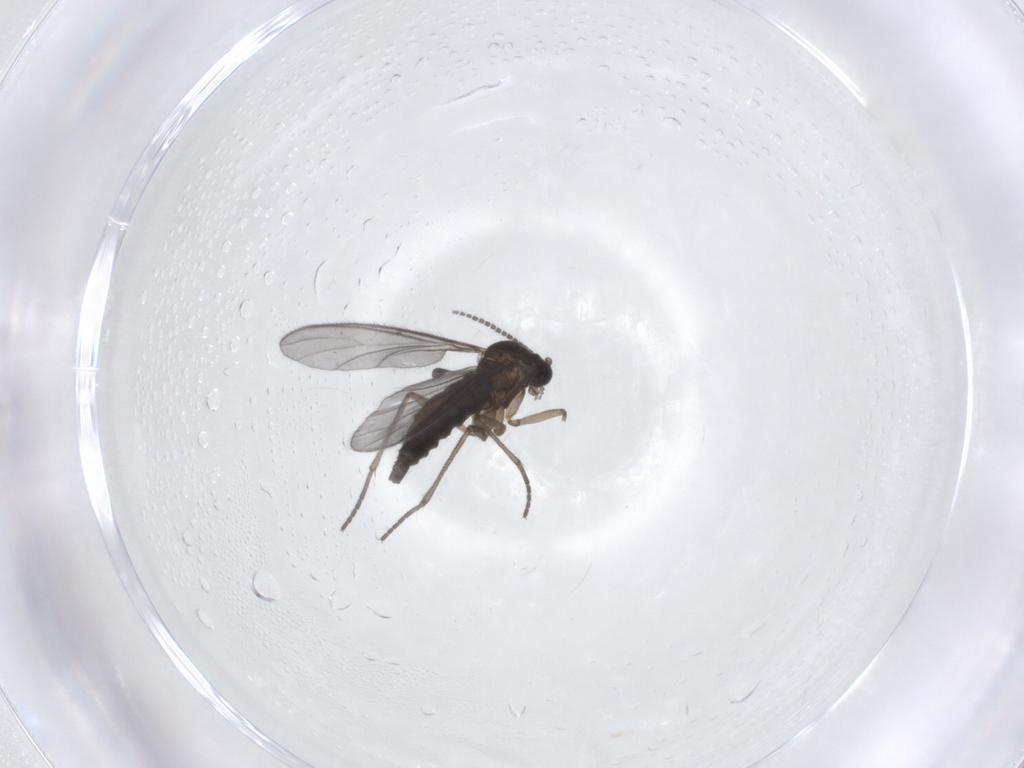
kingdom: Animalia
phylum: Arthropoda
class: Insecta
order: Diptera
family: Sciaridae
